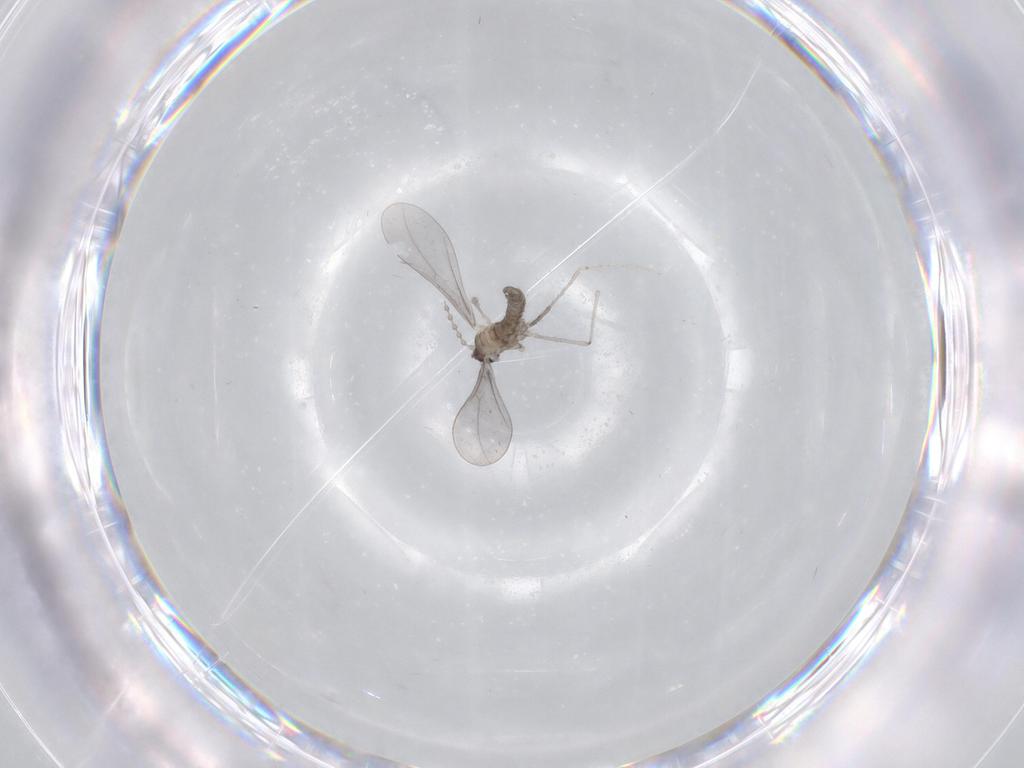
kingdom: Animalia
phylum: Arthropoda
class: Insecta
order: Diptera
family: Cecidomyiidae
